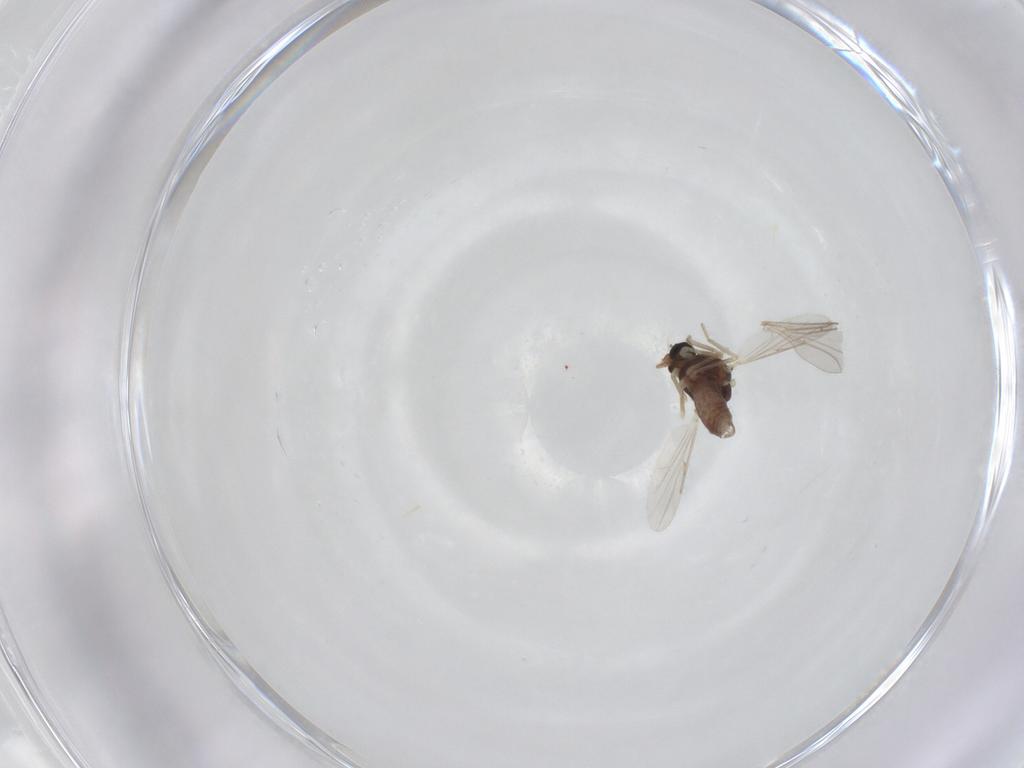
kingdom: Animalia
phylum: Arthropoda
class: Insecta
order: Diptera
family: Ceratopogonidae
